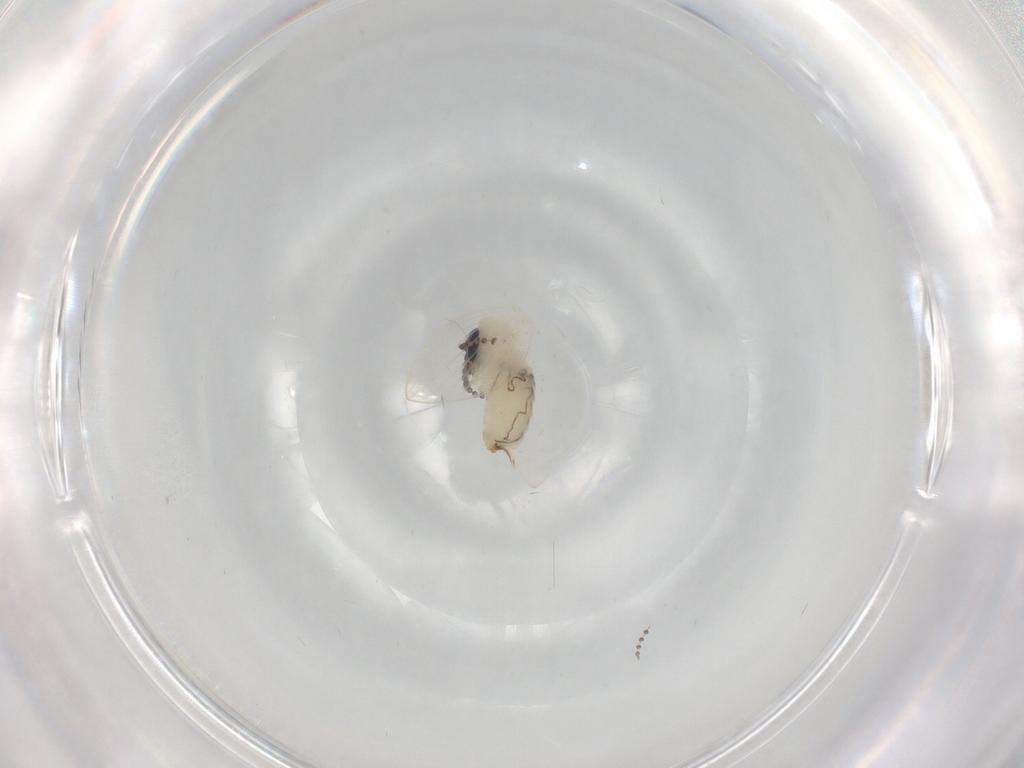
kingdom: Animalia
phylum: Arthropoda
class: Insecta
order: Diptera
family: Psychodidae
